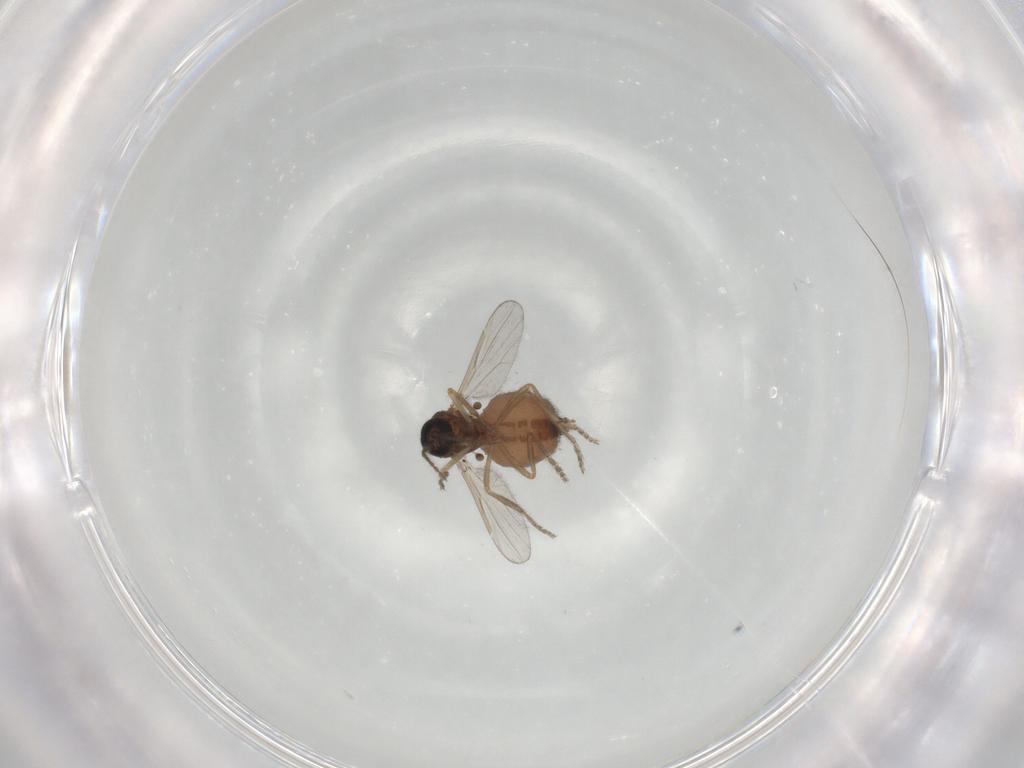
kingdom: Animalia
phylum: Arthropoda
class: Insecta
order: Diptera
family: Ceratopogonidae
